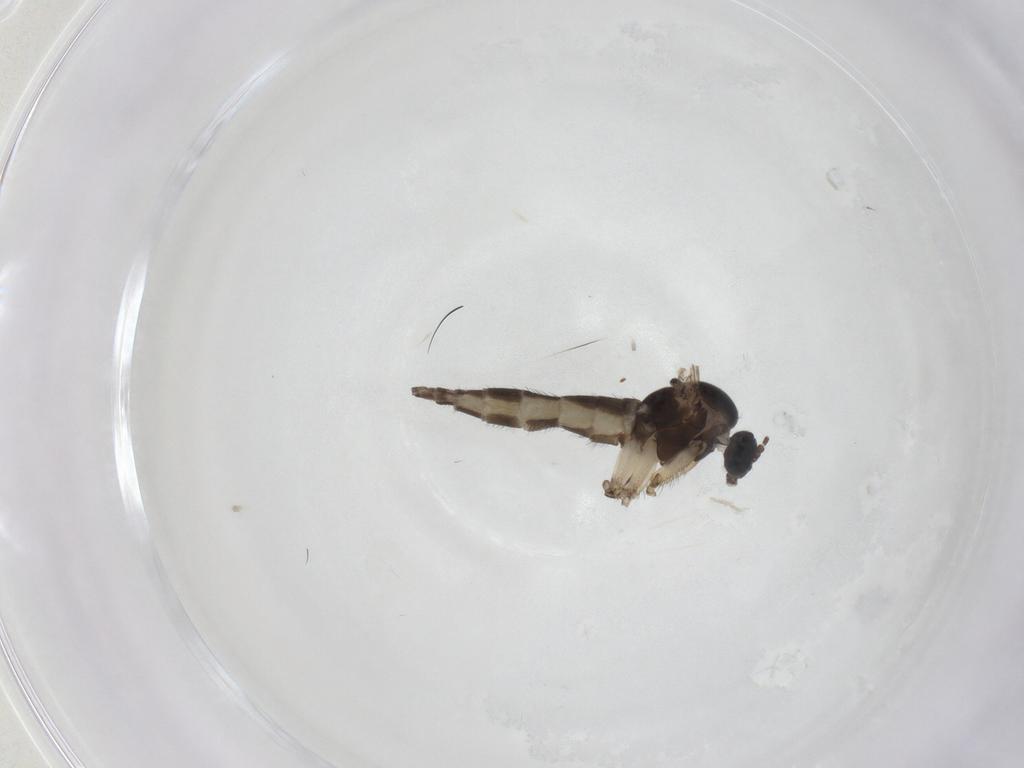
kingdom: Animalia
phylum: Arthropoda
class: Insecta
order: Diptera
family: Sciaridae
